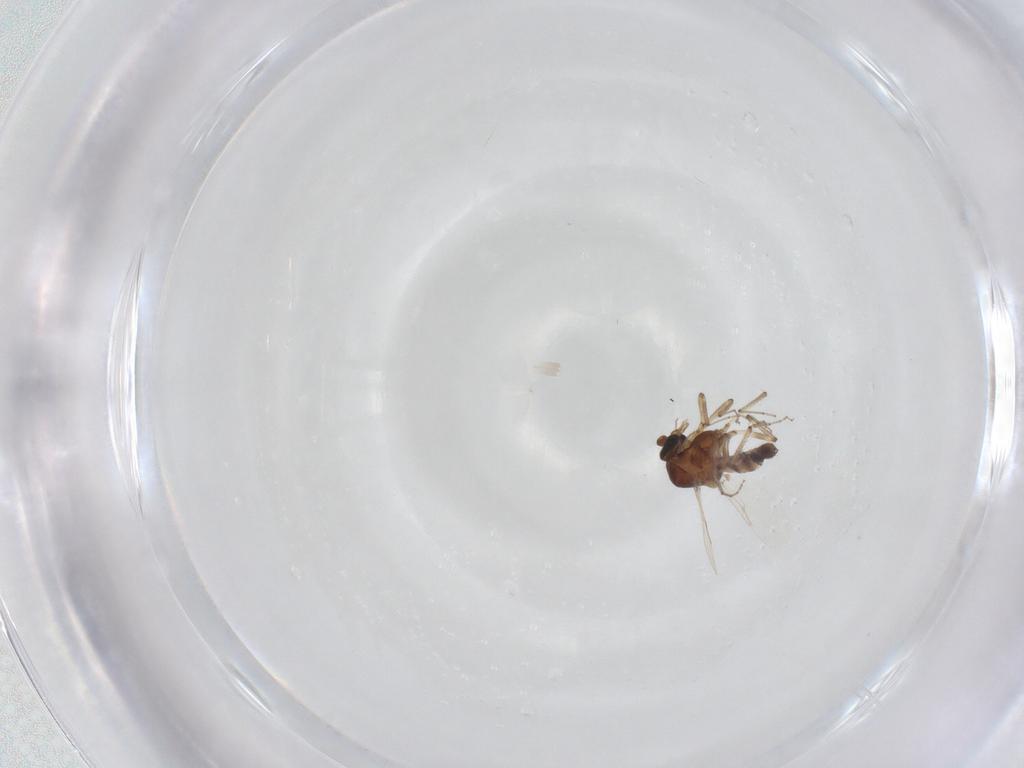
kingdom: Animalia
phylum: Arthropoda
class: Insecta
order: Diptera
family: Ceratopogonidae
